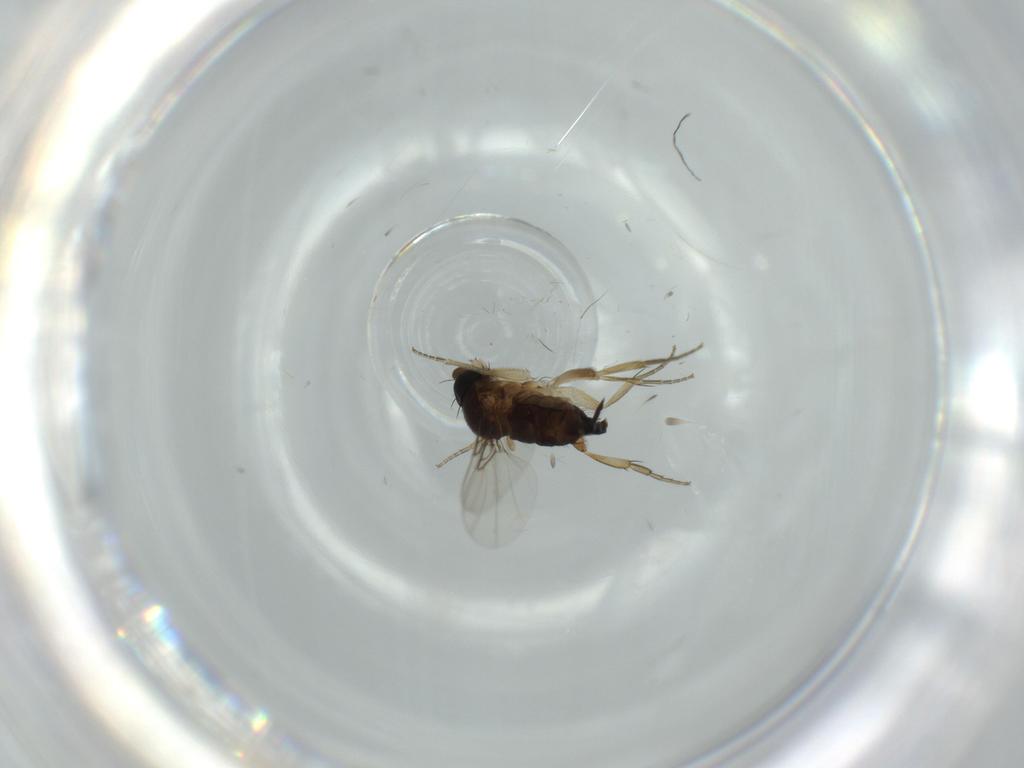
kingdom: Animalia
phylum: Arthropoda
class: Insecta
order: Diptera
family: Phoridae
